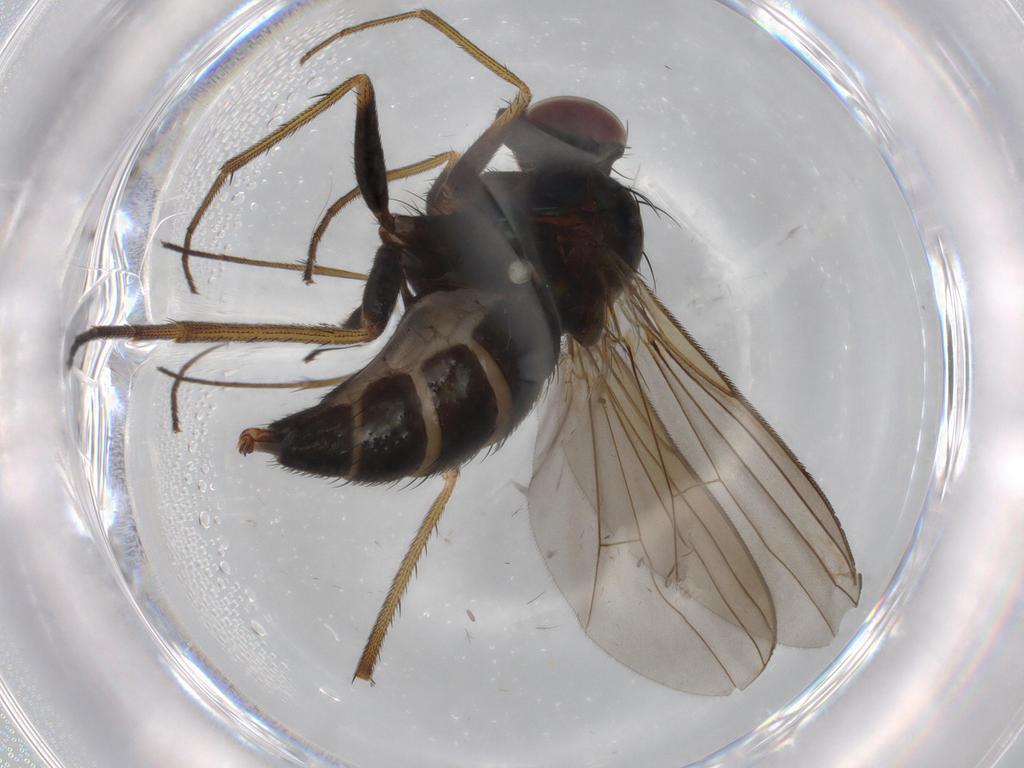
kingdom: Animalia
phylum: Arthropoda
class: Insecta
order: Diptera
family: Dolichopodidae
